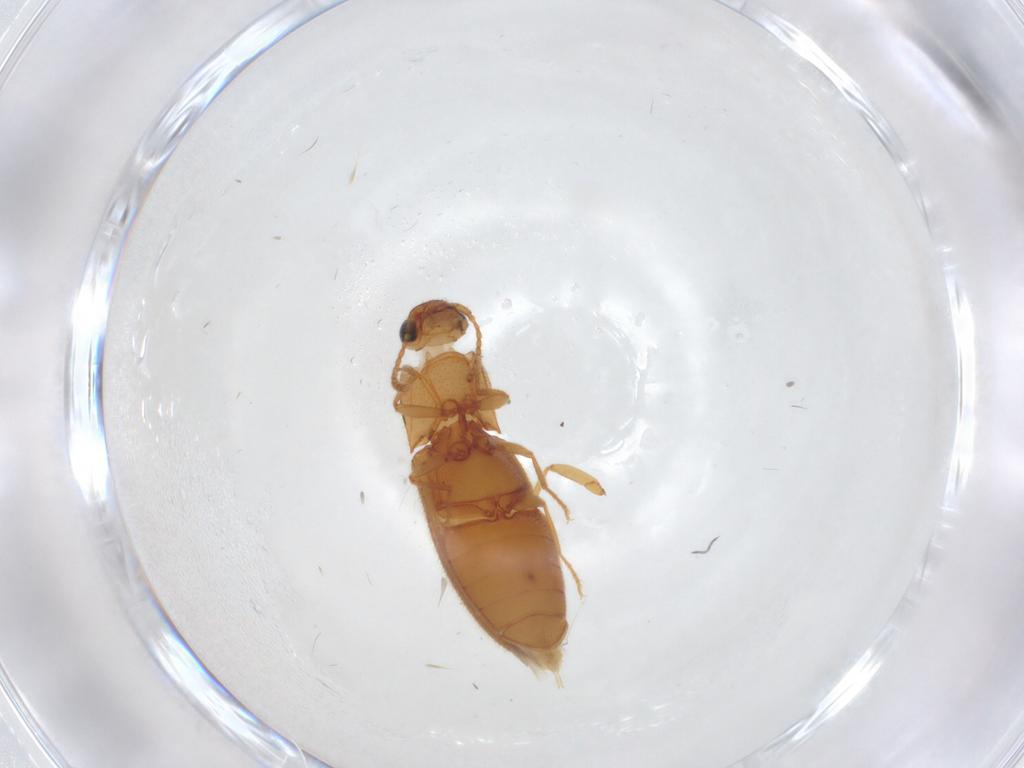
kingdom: Animalia
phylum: Arthropoda
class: Insecta
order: Coleoptera
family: Elateridae
